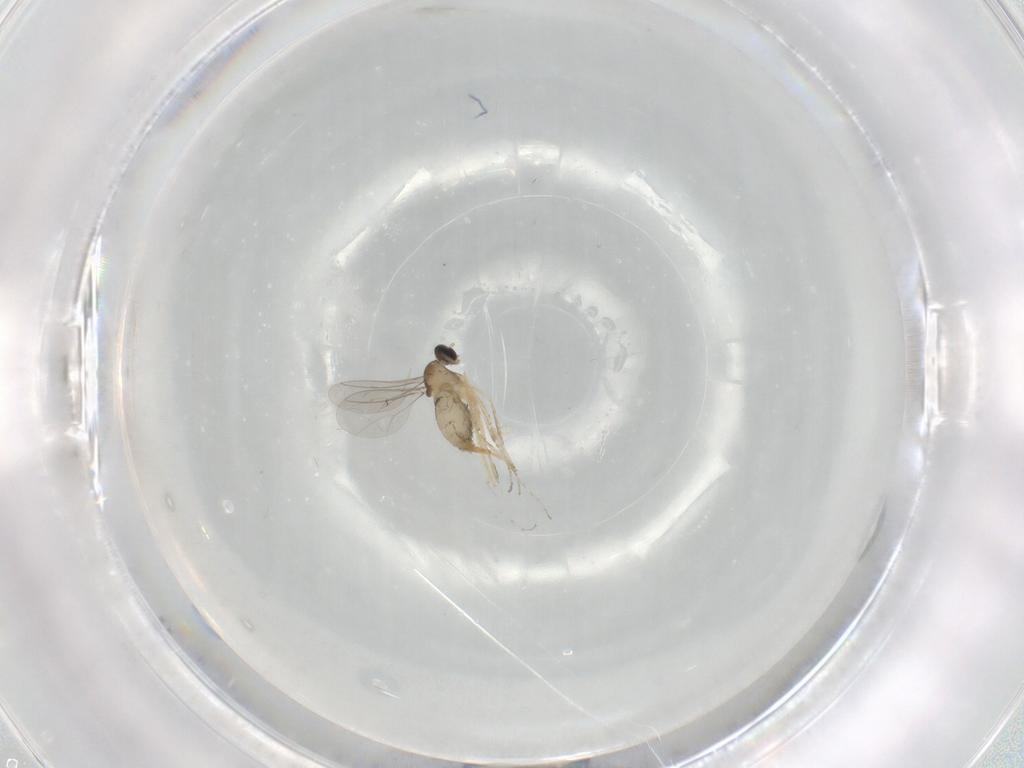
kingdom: Animalia
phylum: Arthropoda
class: Insecta
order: Diptera
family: Cecidomyiidae
